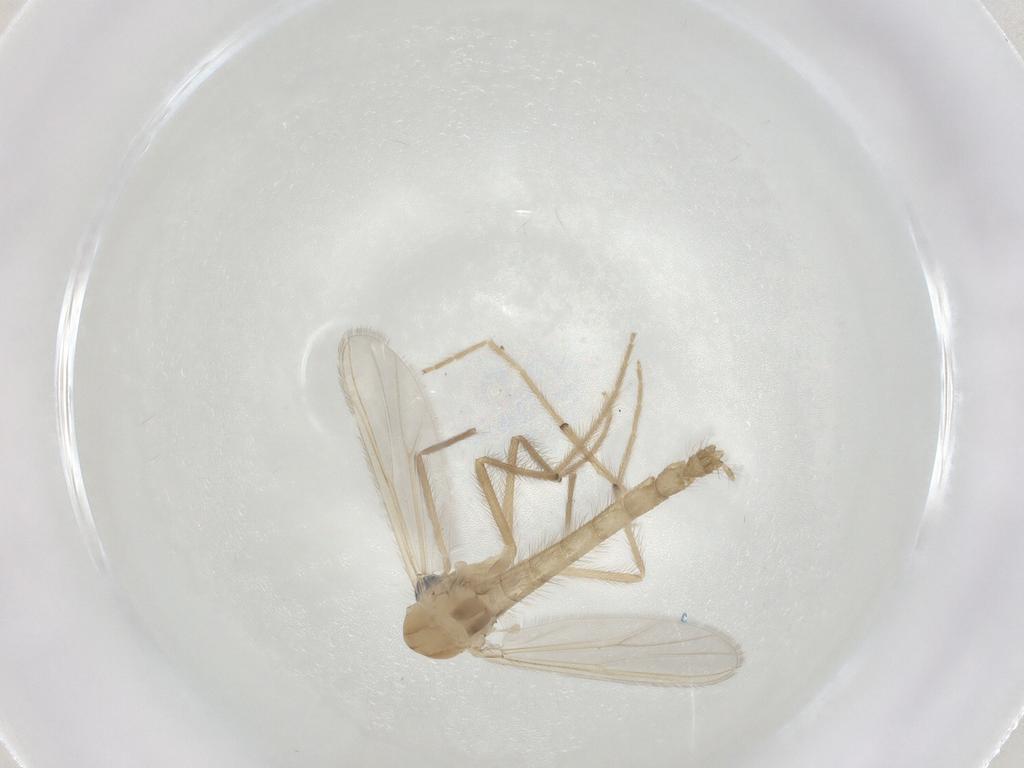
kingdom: Animalia
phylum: Arthropoda
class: Insecta
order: Diptera
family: Chironomidae
